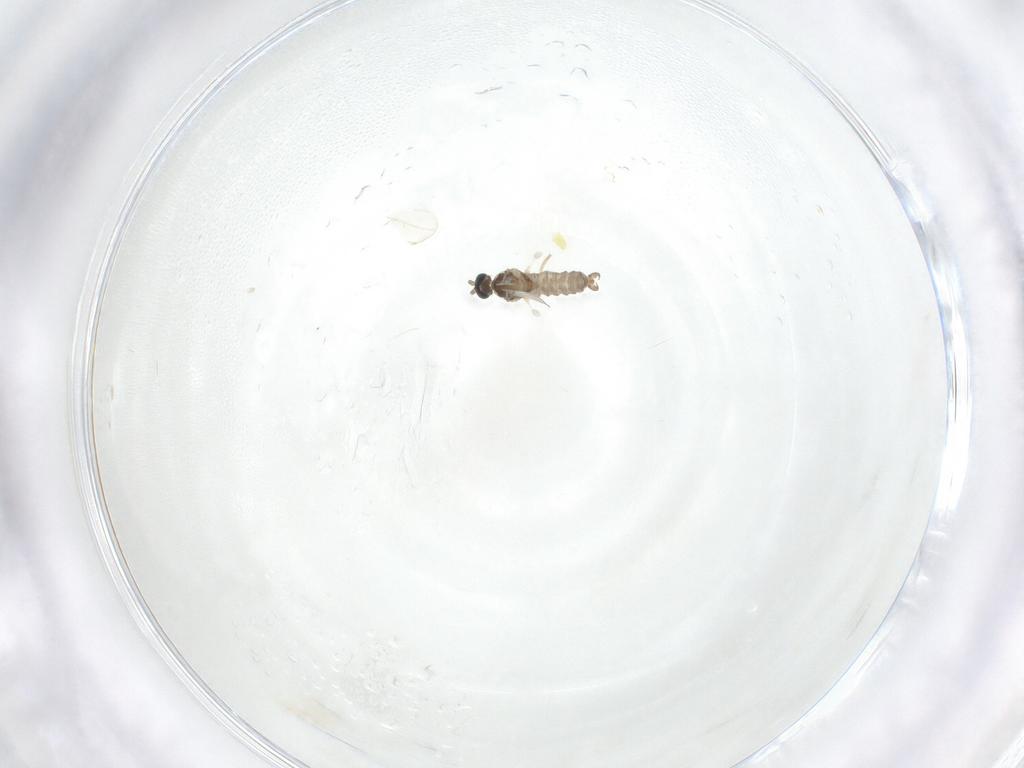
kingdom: Animalia
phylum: Arthropoda
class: Insecta
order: Diptera
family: Cecidomyiidae
